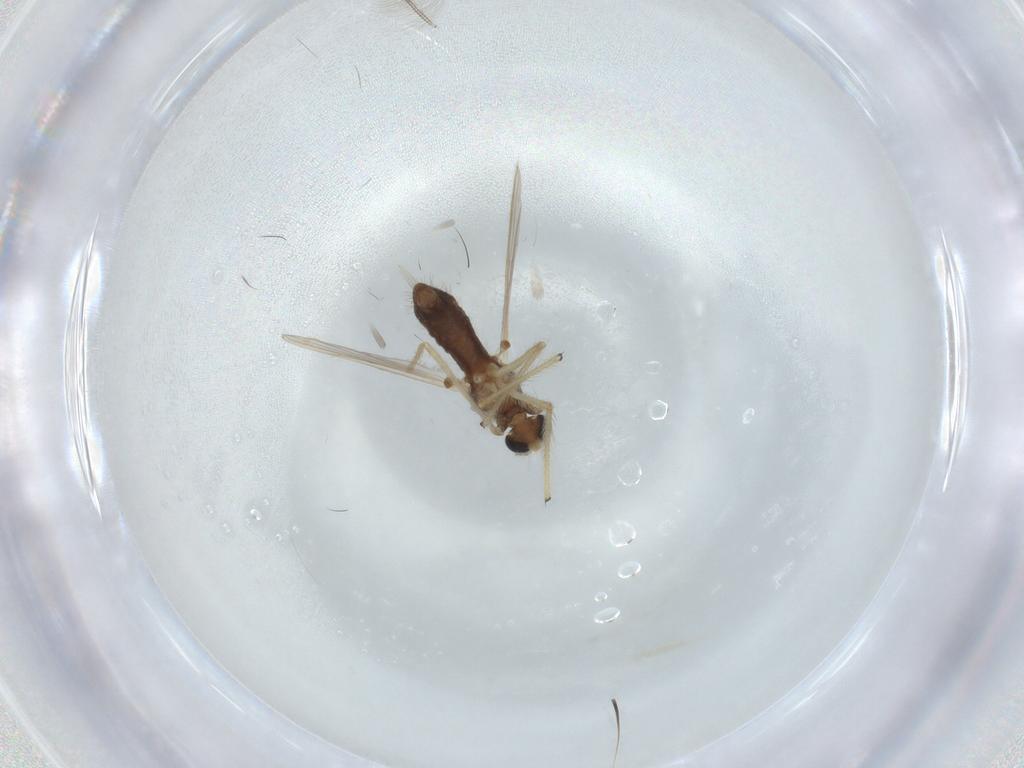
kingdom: Animalia
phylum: Arthropoda
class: Insecta
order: Diptera
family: Chironomidae
